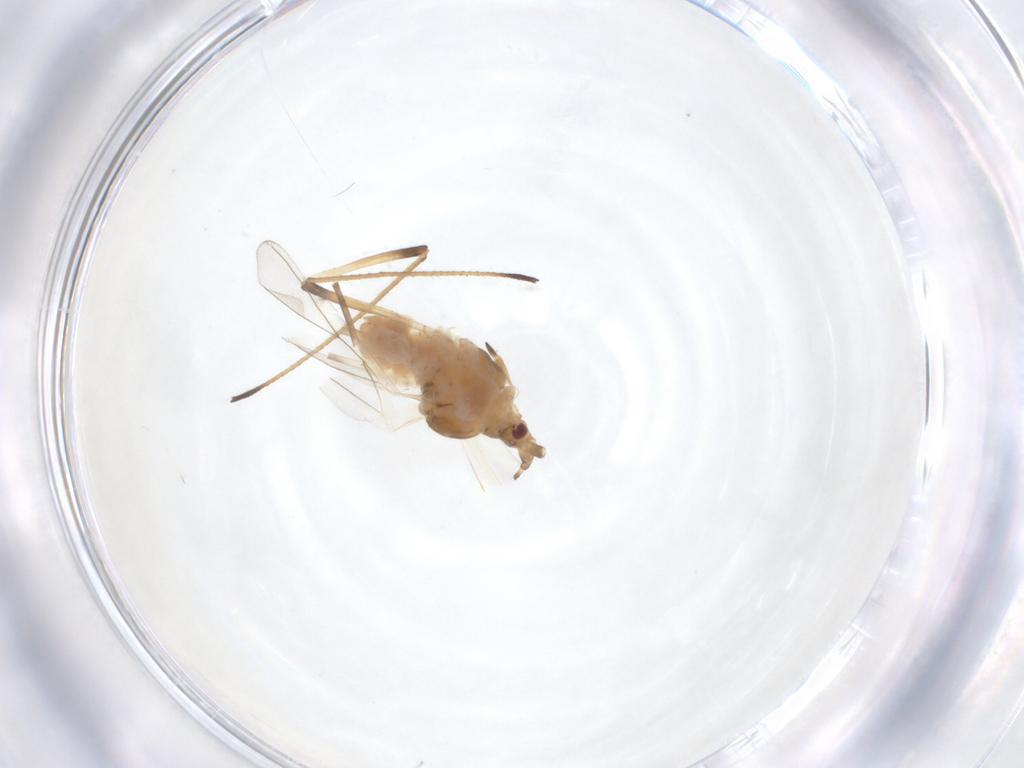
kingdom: Animalia
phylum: Arthropoda
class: Insecta
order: Hemiptera
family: Aphididae
